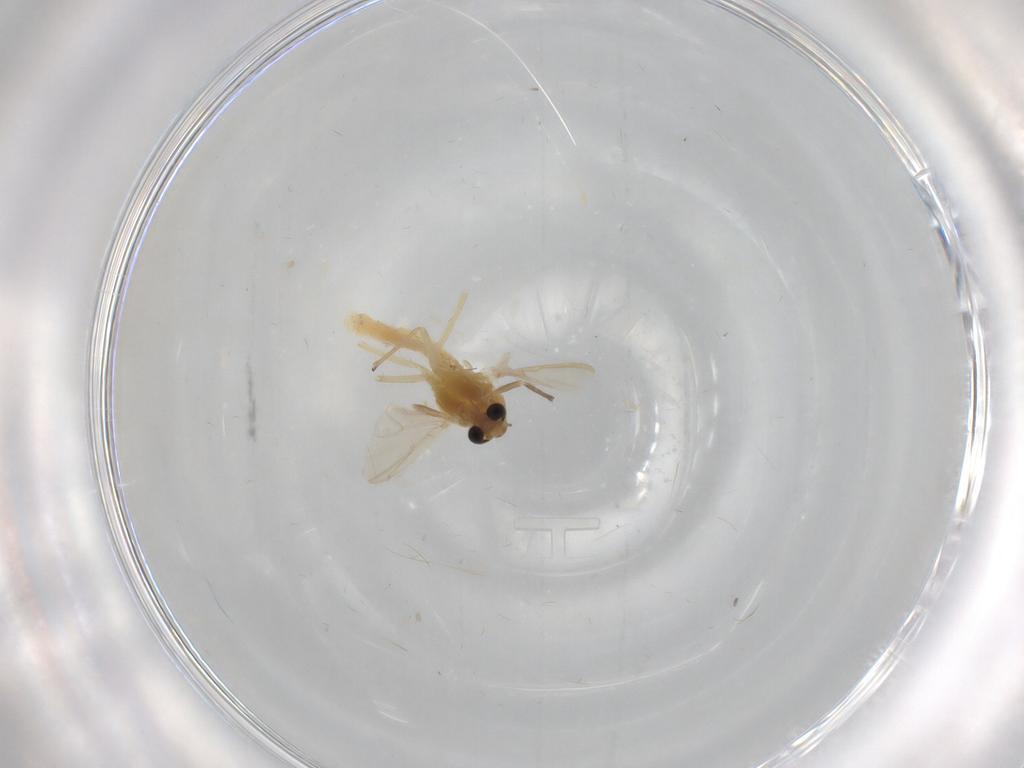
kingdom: Animalia
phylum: Arthropoda
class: Insecta
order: Diptera
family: Chironomidae
